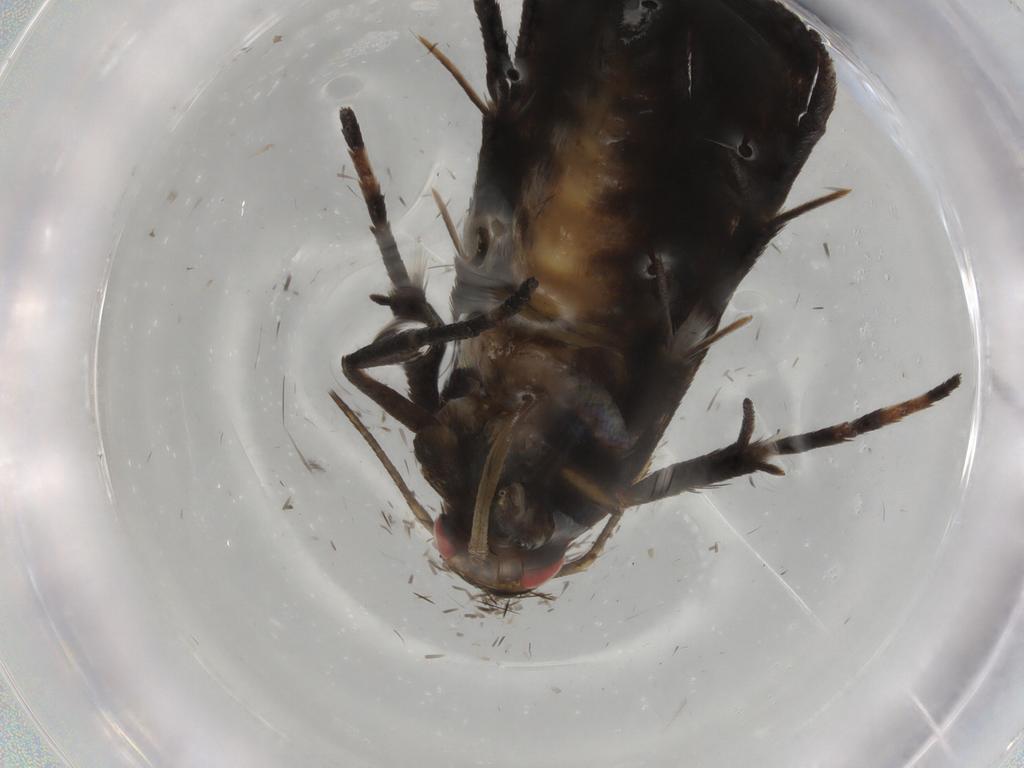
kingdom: Animalia
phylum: Arthropoda
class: Insecta
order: Lepidoptera
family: Gelechiidae
